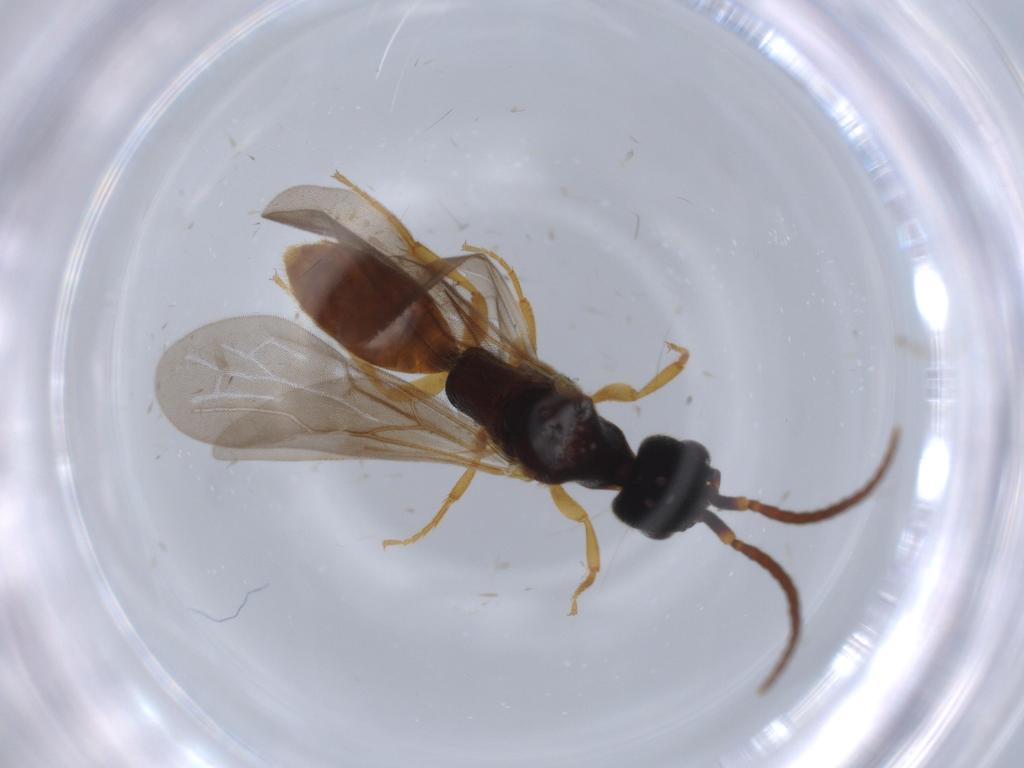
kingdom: Animalia
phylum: Arthropoda
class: Insecta
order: Hymenoptera
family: Bethylidae
